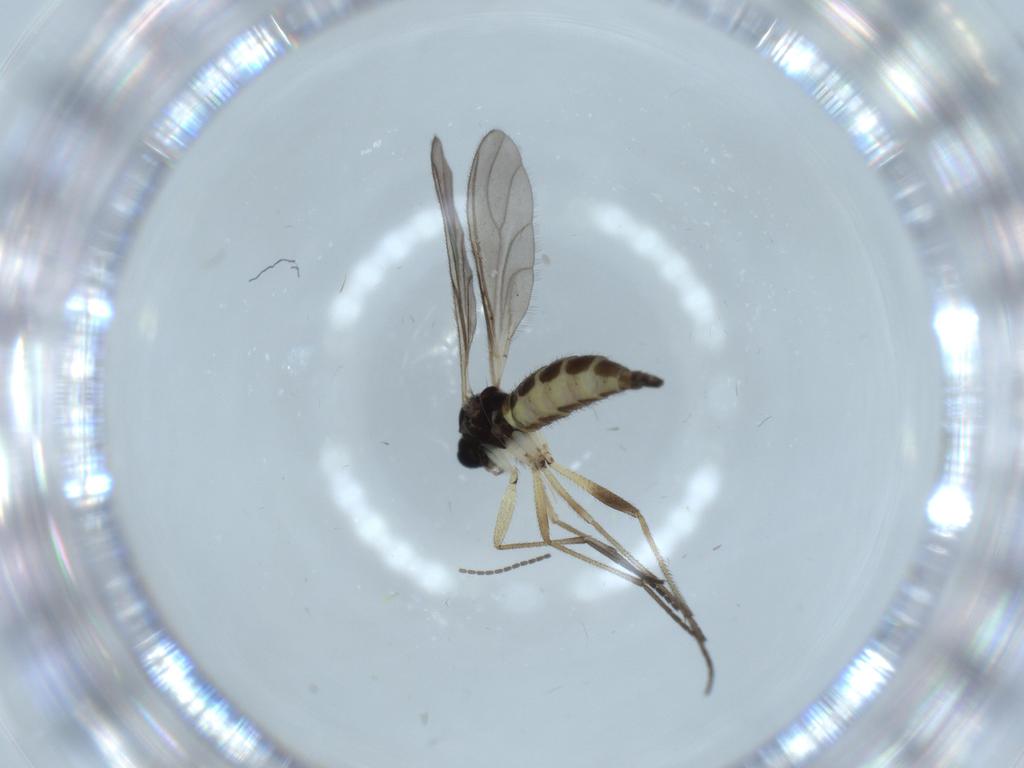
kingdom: Animalia
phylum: Arthropoda
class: Insecta
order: Diptera
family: Sciaridae
